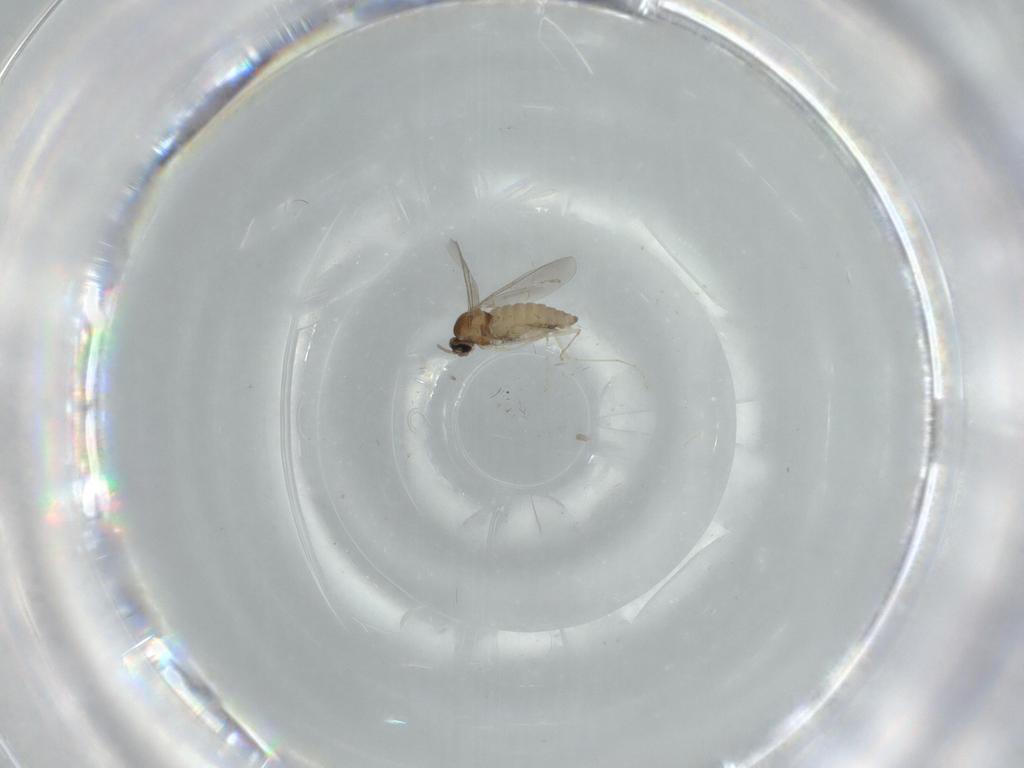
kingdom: Animalia
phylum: Arthropoda
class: Insecta
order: Diptera
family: Cecidomyiidae
